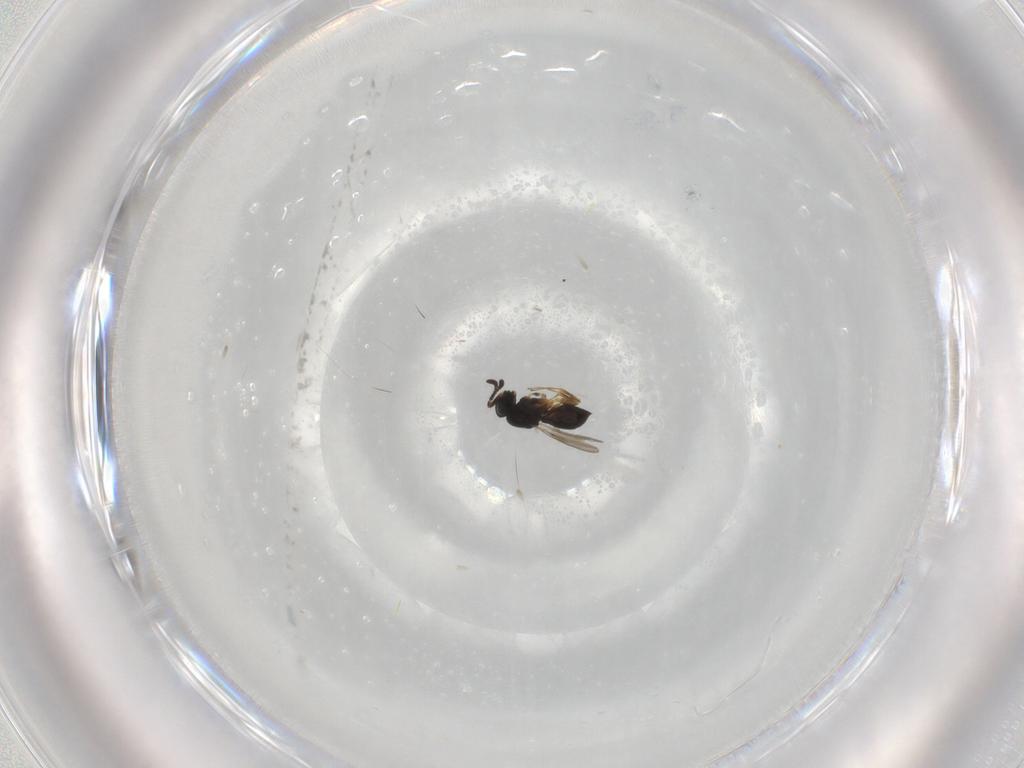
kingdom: Animalia
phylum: Arthropoda
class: Insecta
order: Hymenoptera
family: Scelionidae
